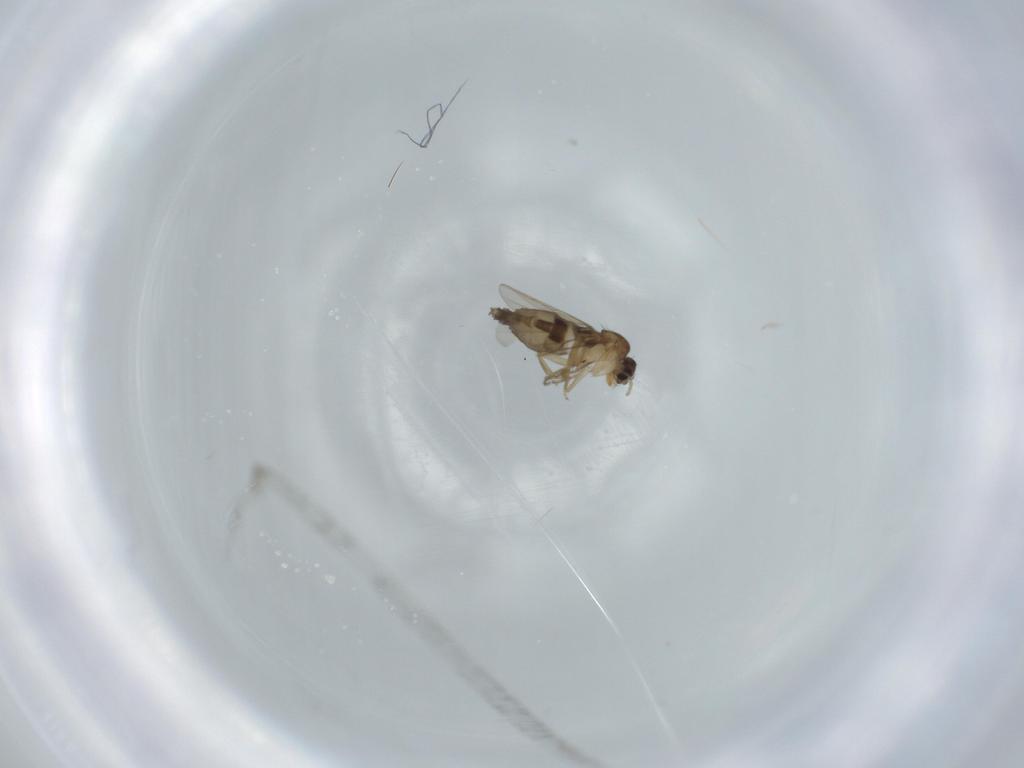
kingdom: Animalia
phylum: Arthropoda
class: Insecta
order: Diptera
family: Phoridae
